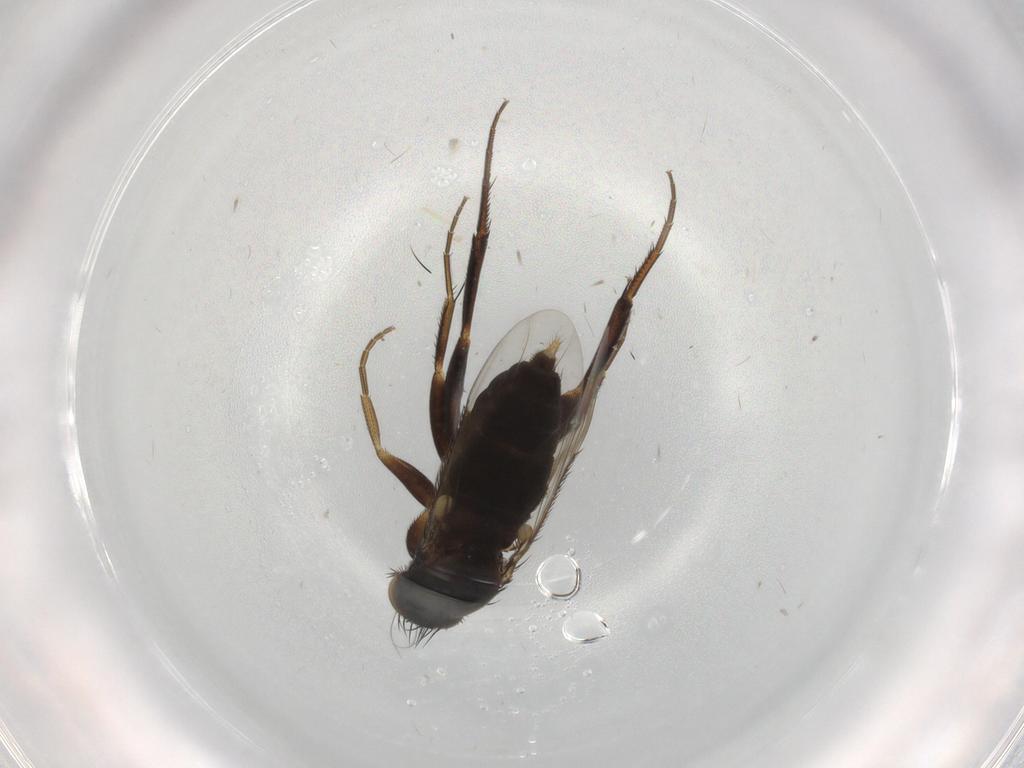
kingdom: Animalia
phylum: Arthropoda
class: Insecta
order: Diptera
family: Phoridae
